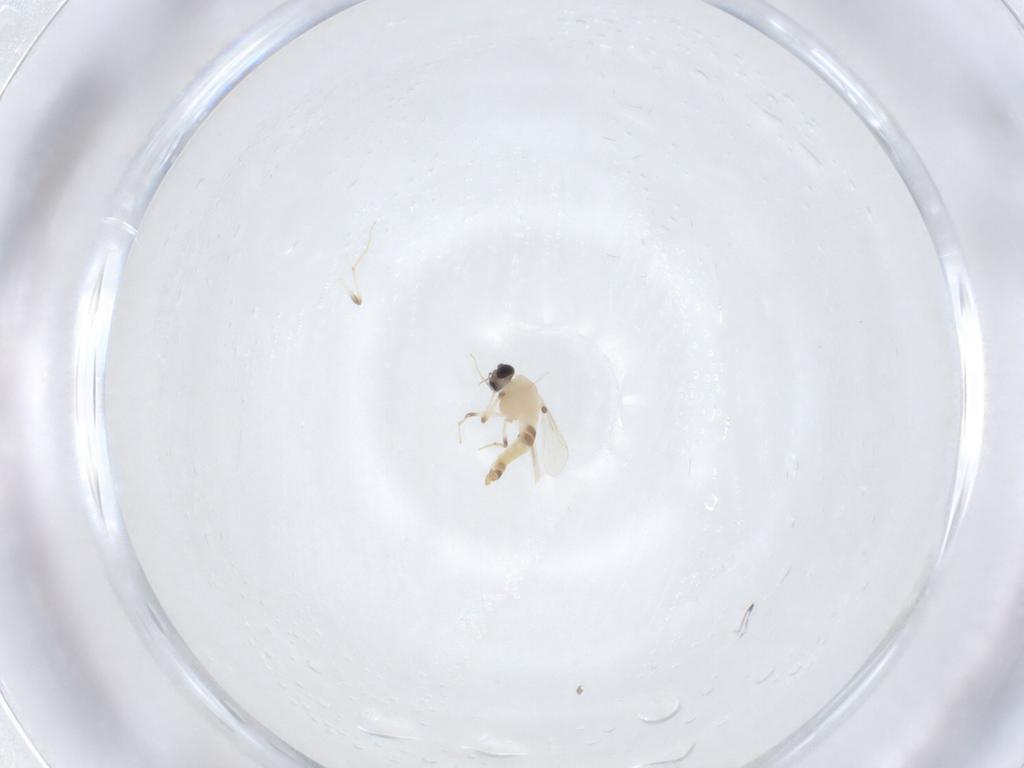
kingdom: Animalia
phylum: Arthropoda
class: Insecta
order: Diptera
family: Chironomidae
